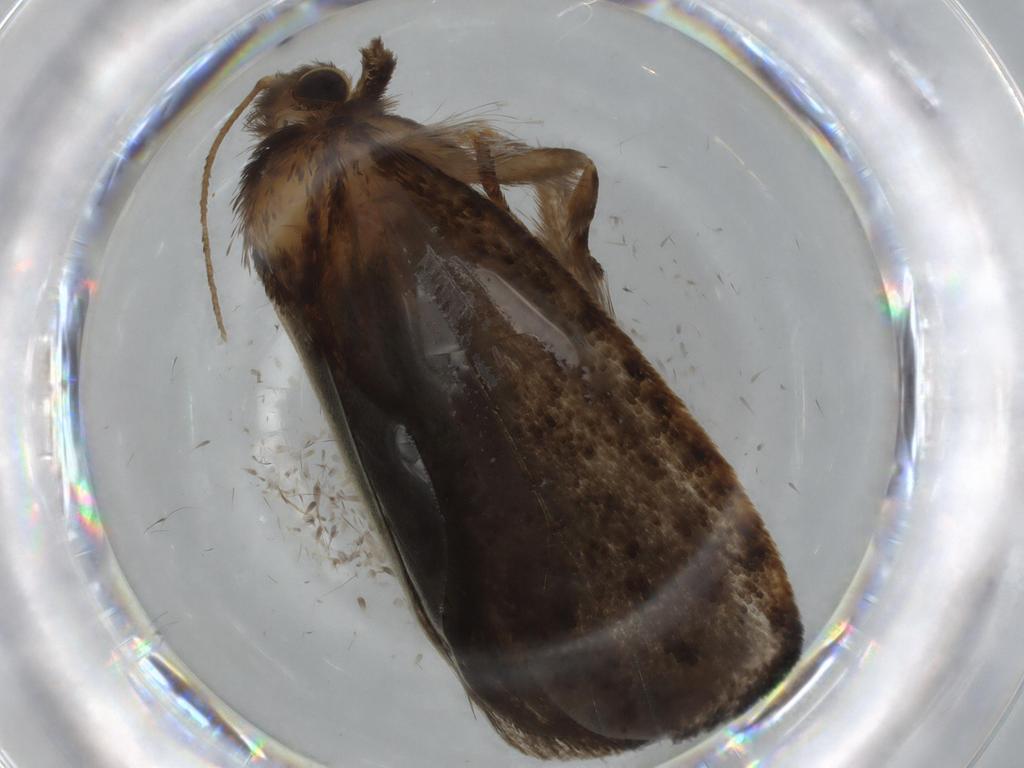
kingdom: Animalia
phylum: Arthropoda
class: Insecta
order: Lepidoptera
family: Tineidae
